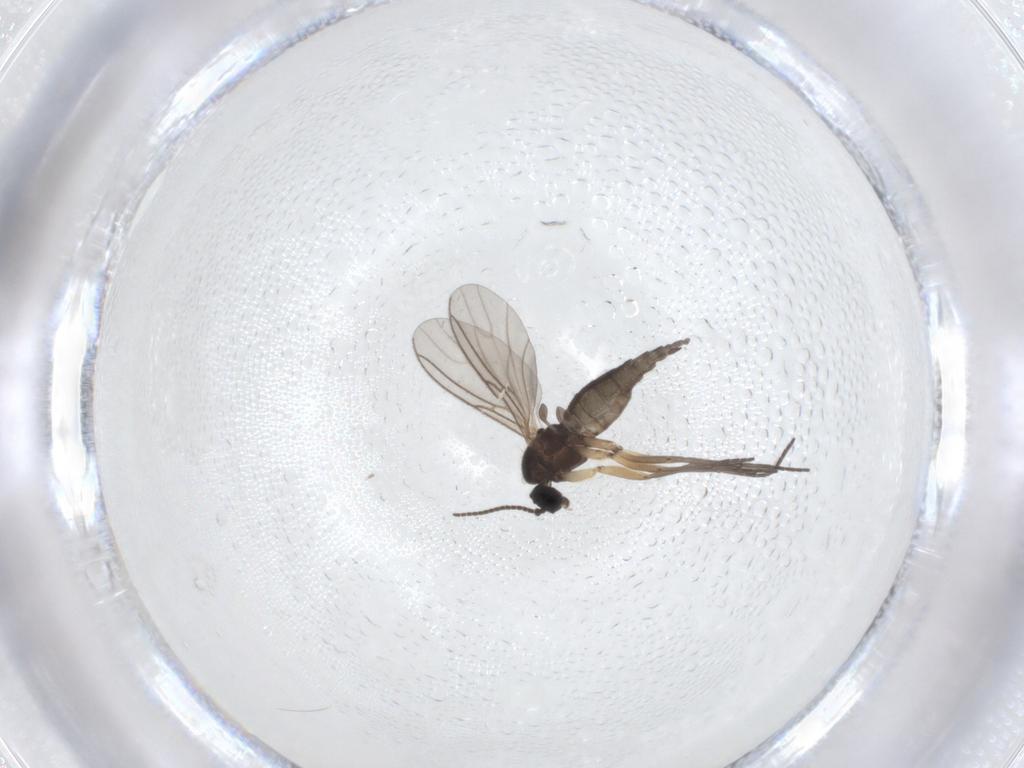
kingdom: Animalia
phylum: Arthropoda
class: Insecta
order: Diptera
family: Sciaridae
